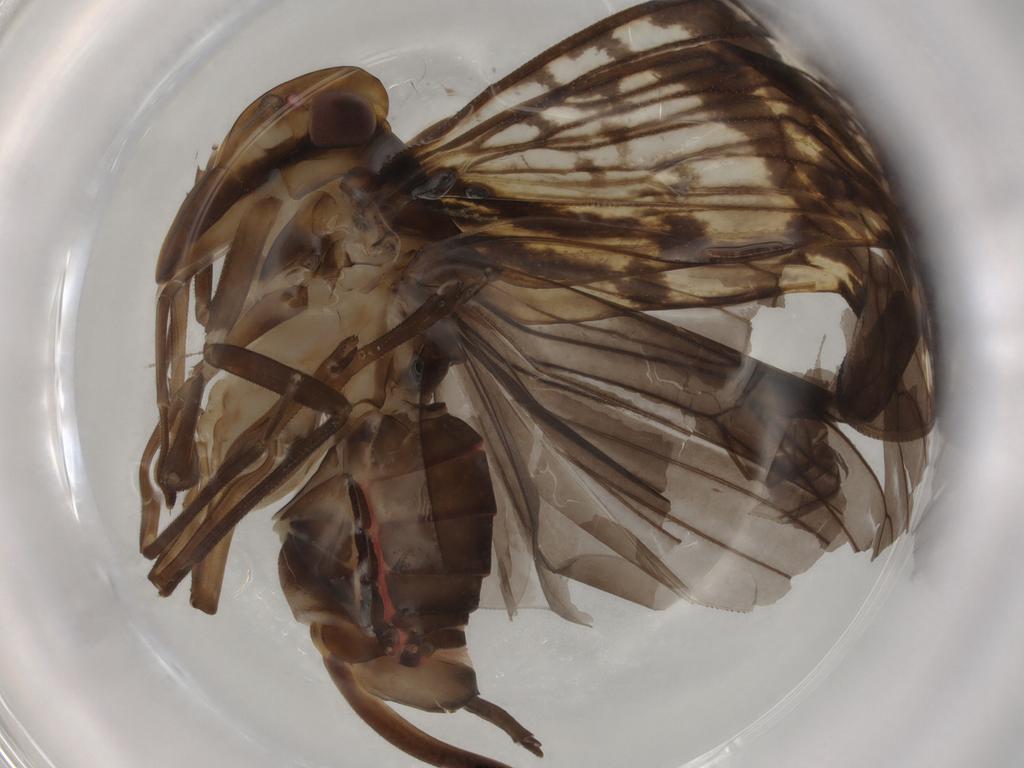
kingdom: Animalia
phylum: Arthropoda
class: Insecta
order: Hemiptera
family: Cixiidae
